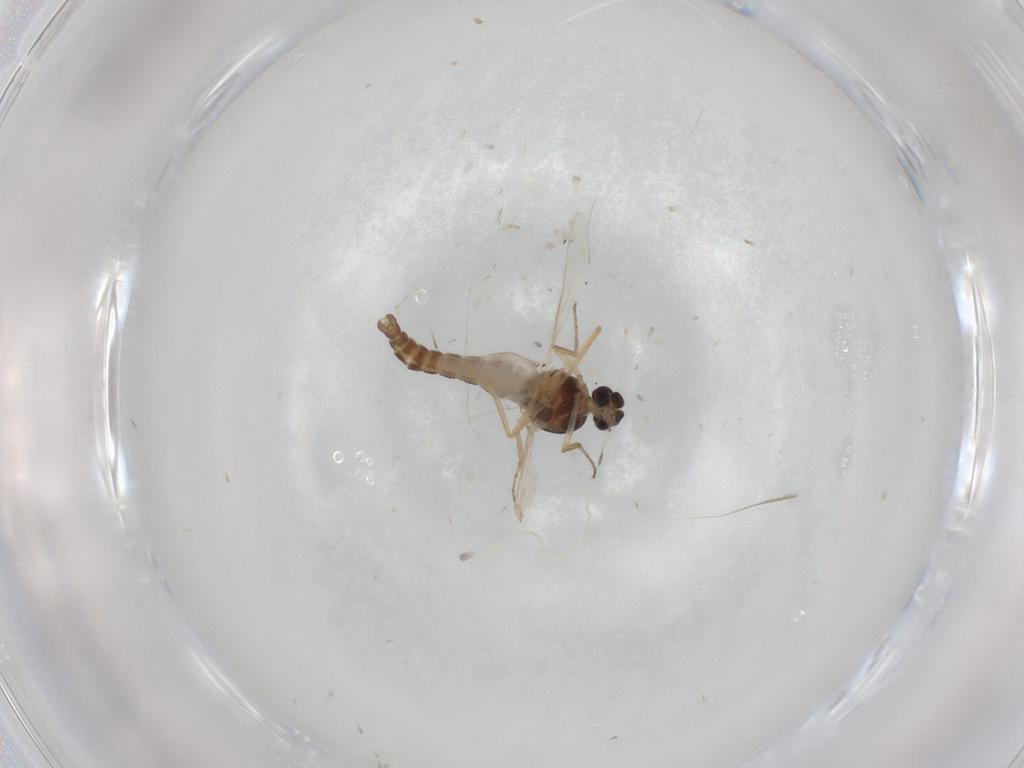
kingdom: Animalia
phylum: Arthropoda
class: Insecta
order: Diptera
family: Ceratopogonidae
